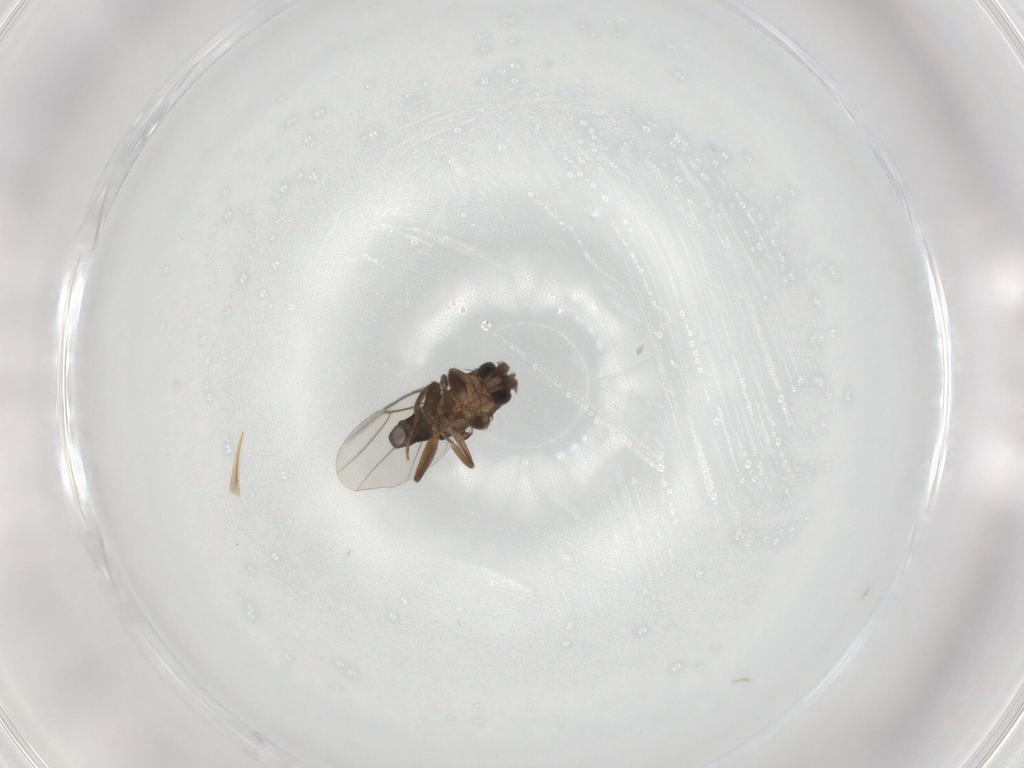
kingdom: Animalia
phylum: Arthropoda
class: Insecta
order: Diptera
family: Phoridae
